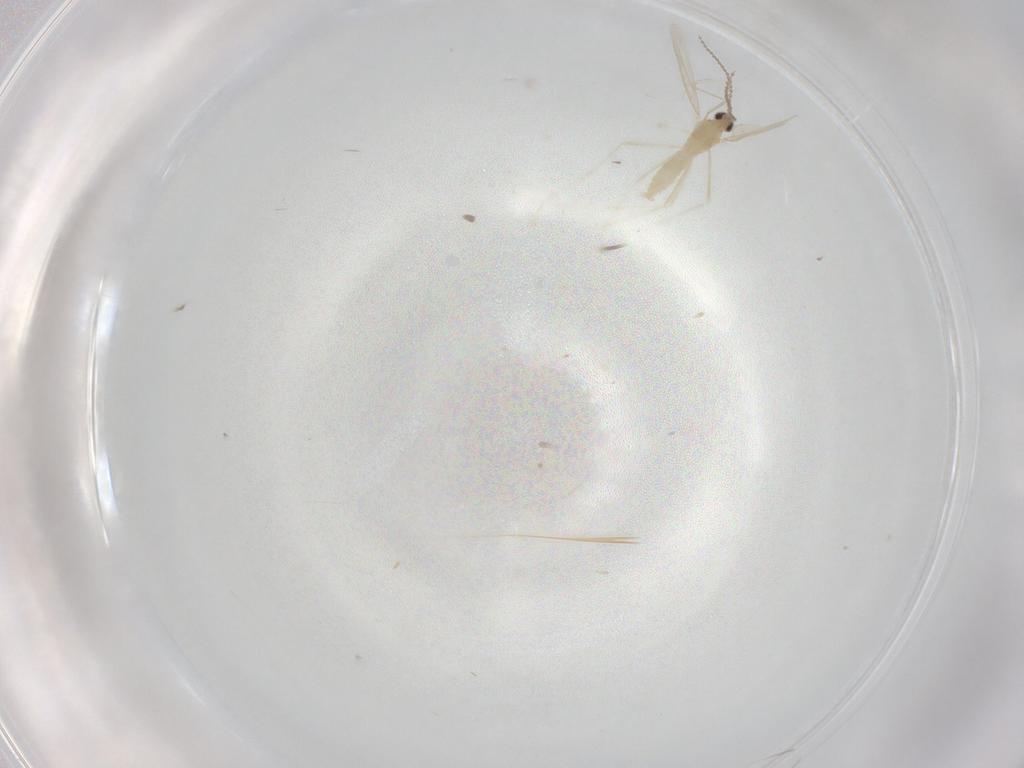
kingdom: Animalia
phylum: Arthropoda
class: Insecta
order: Diptera
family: Cecidomyiidae
